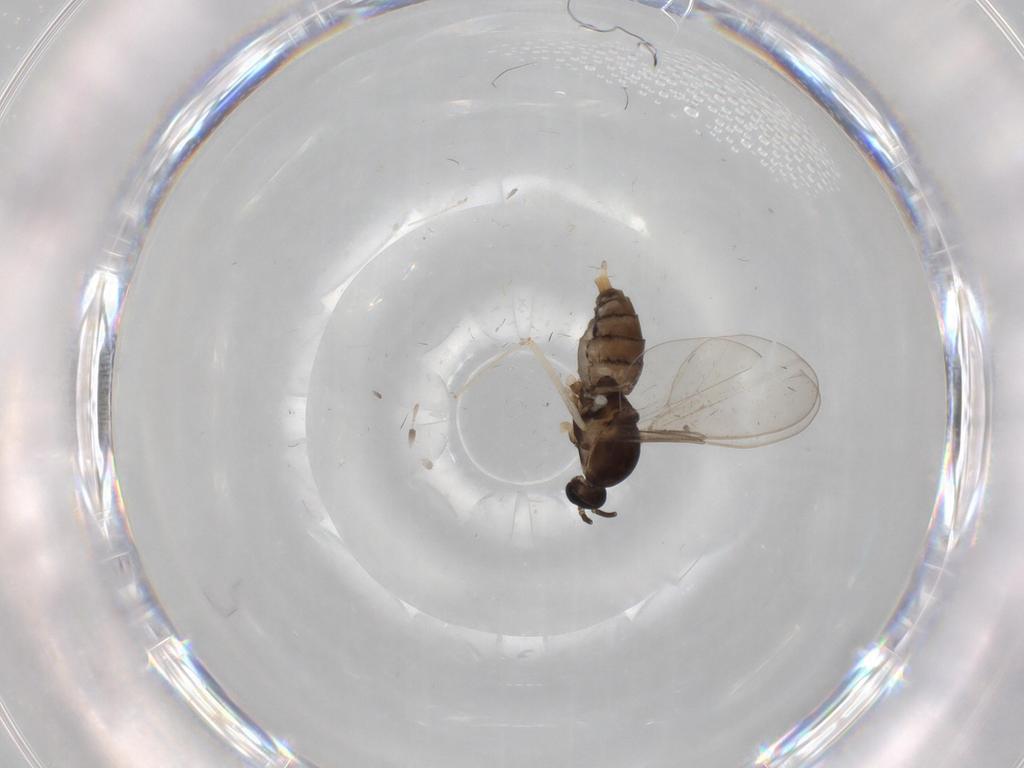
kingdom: Animalia
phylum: Arthropoda
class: Insecta
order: Diptera
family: Cecidomyiidae
